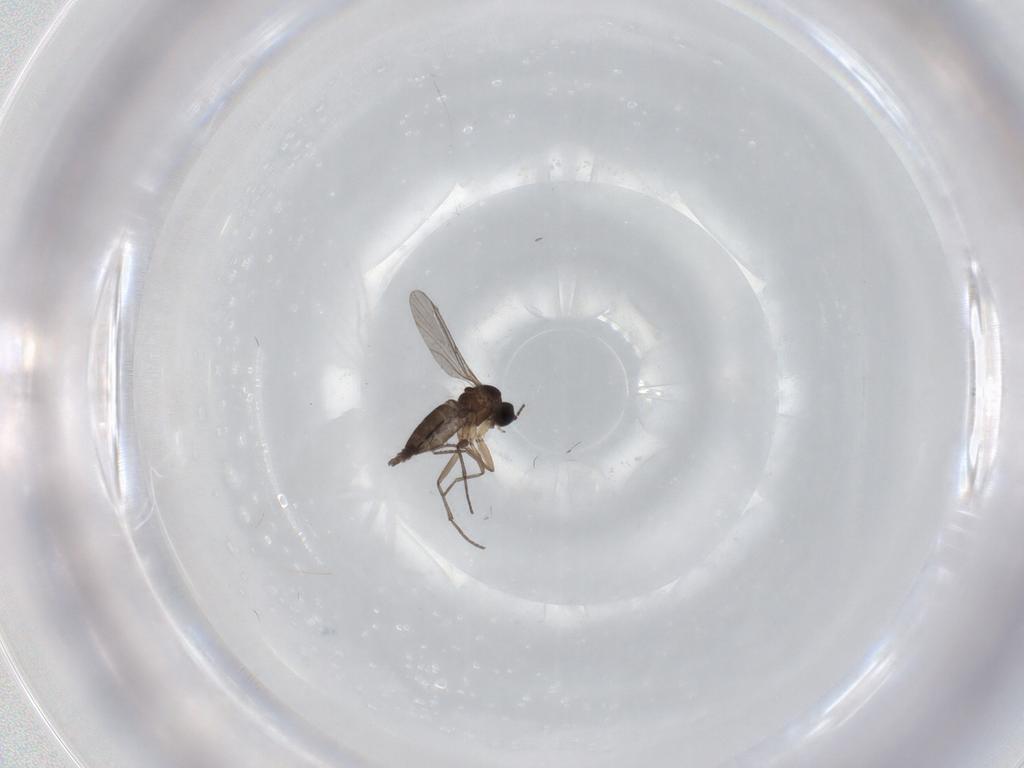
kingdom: Animalia
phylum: Arthropoda
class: Insecta
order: Diptera
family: Sciaridae
